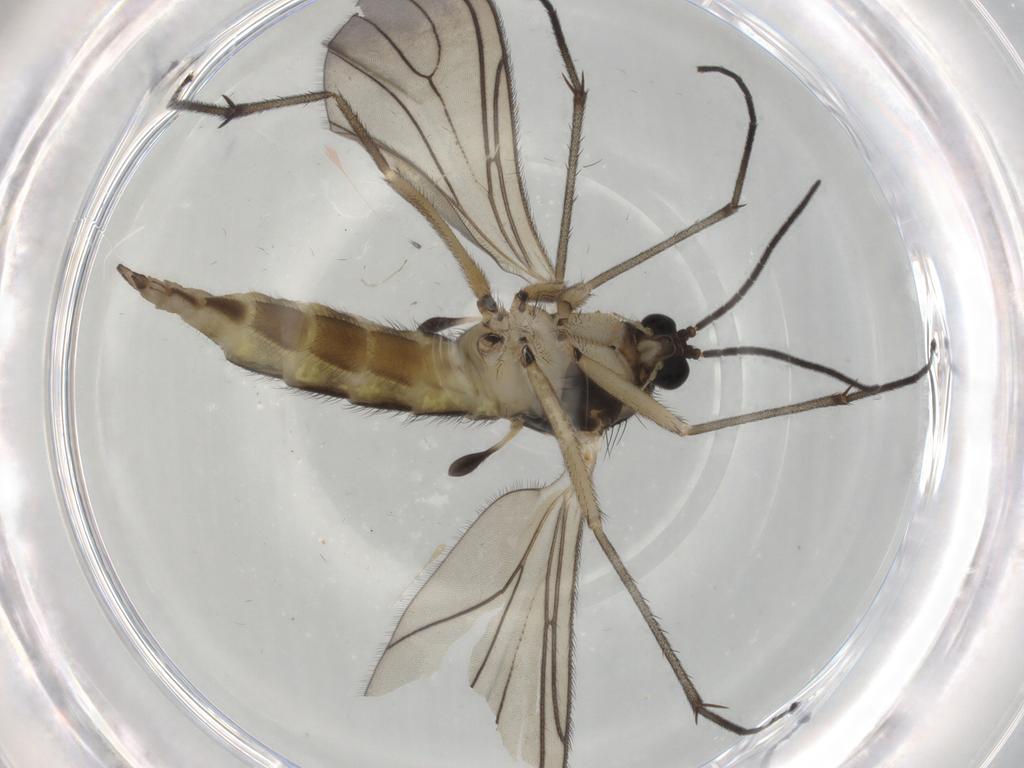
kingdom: Animalia
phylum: Arthropoda
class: Insecta
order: Diptera
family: Sciaridae
